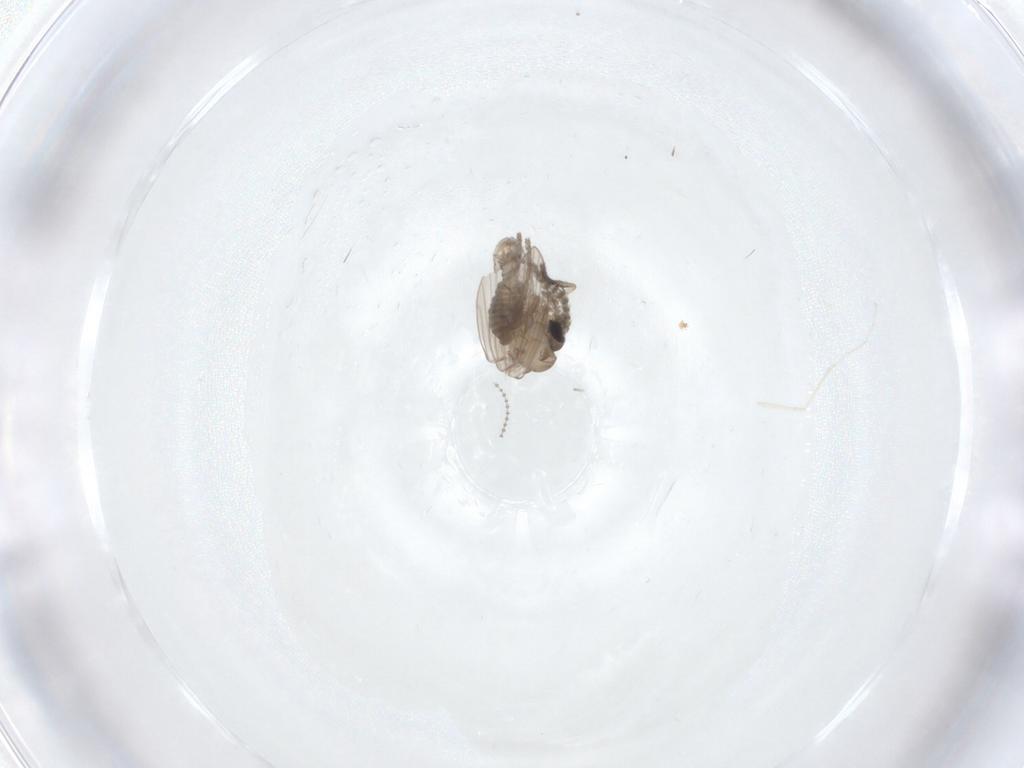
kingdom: Animalia
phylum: Arthropoda
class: Insecta
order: Diptera
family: Psychodidae
